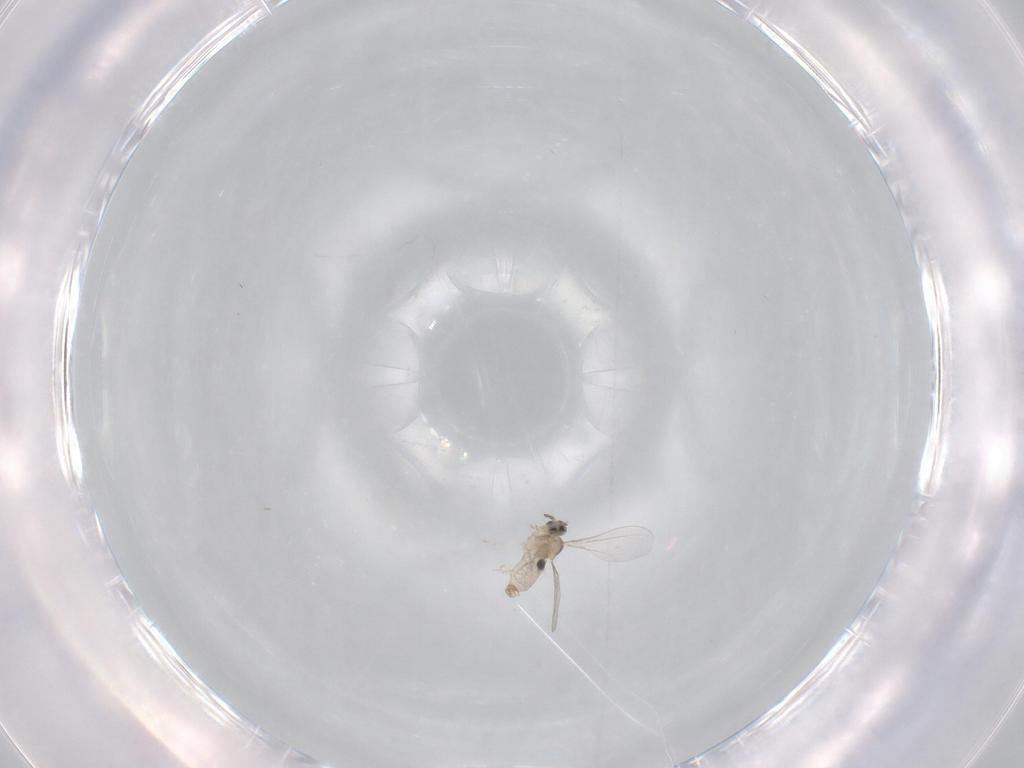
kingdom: Animalia
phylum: Arthropoda
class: Insecta
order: Diptera
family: Cecidomyiidae
